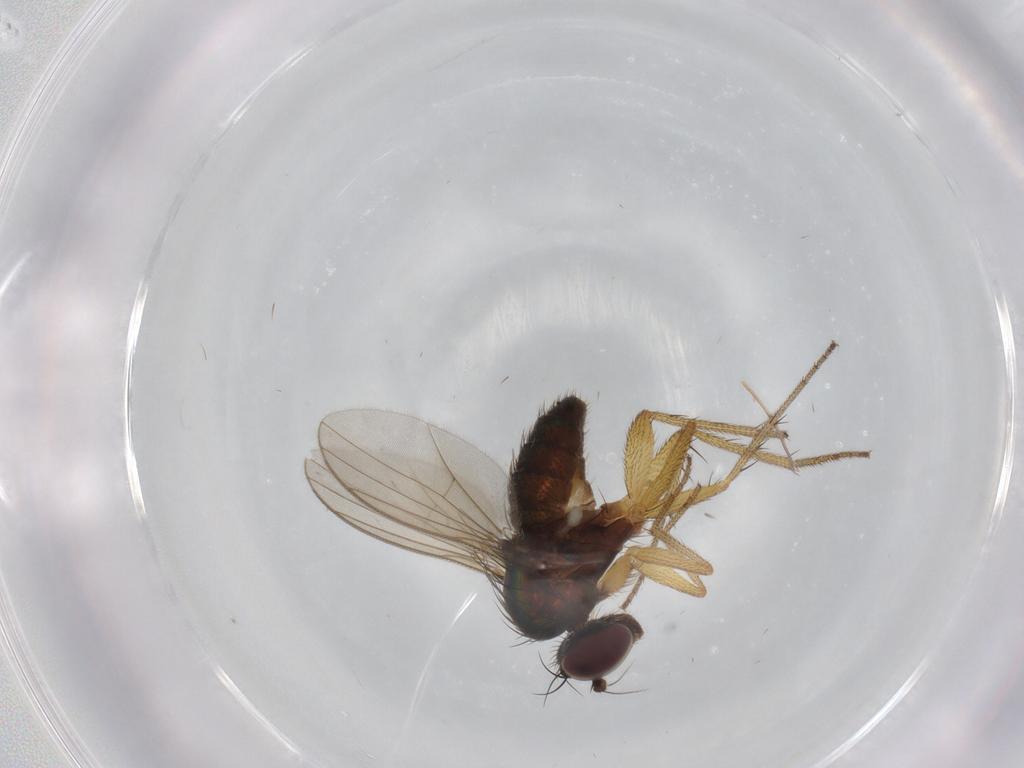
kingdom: Animalia
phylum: Arthropoda
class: Insecta
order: Diptera
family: Dolichopodidae
